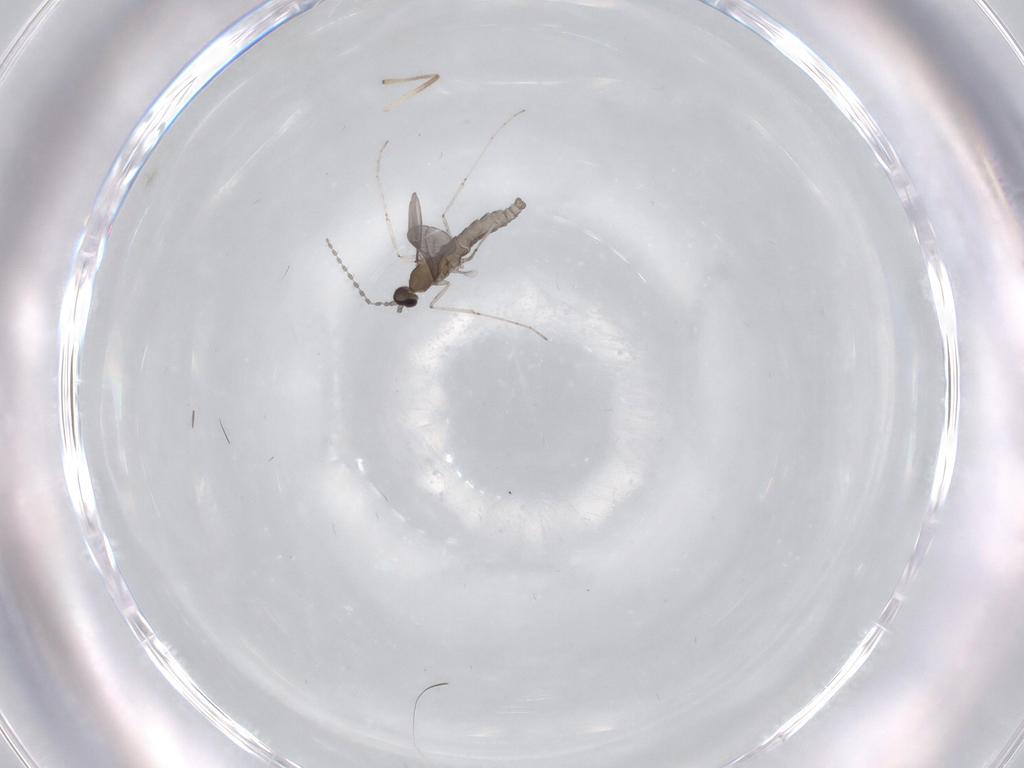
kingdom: Animalia
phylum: Arthropoda
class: Insecta
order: Diptera
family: Cecidomyiidae
